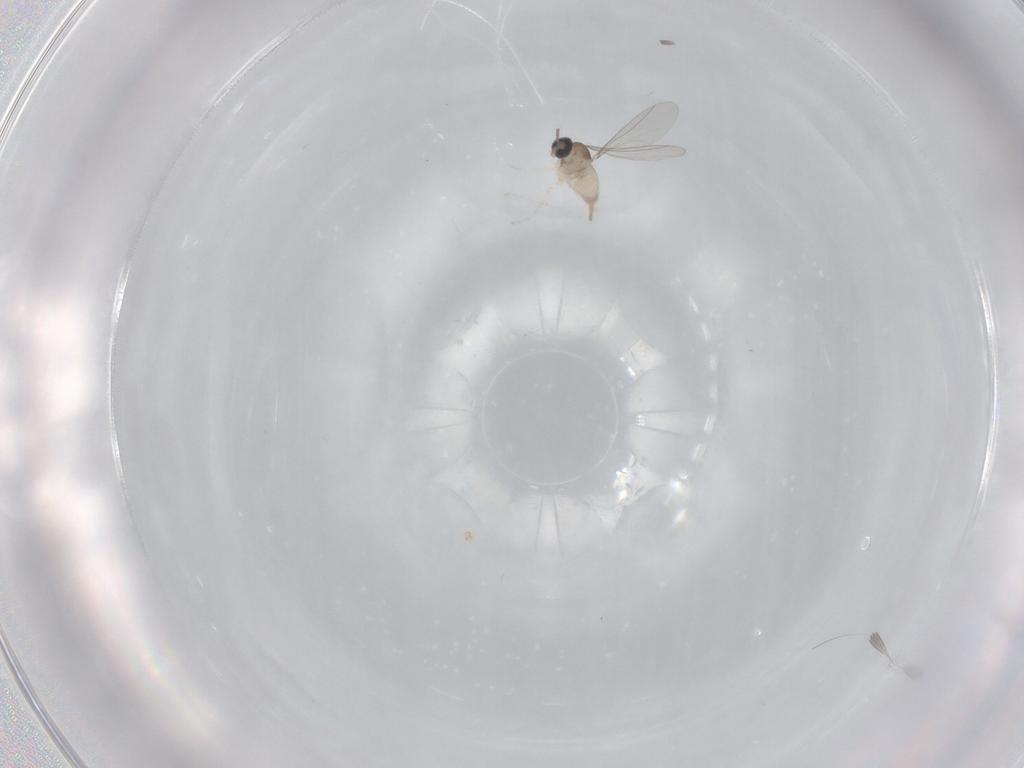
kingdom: Animalia
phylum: Arthropoda
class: Insecta
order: Diptera
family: Cecidomyiidae
